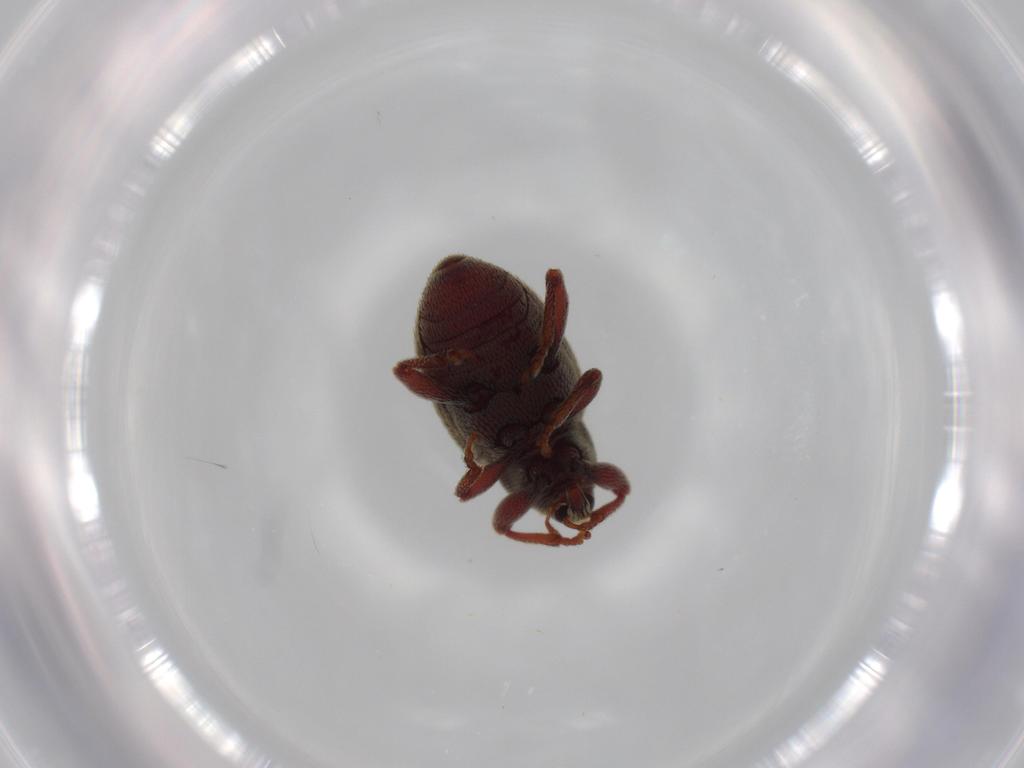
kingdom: Animalia
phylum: Arthropoda
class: Insecta
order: Coleoptera
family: Curculionidae
